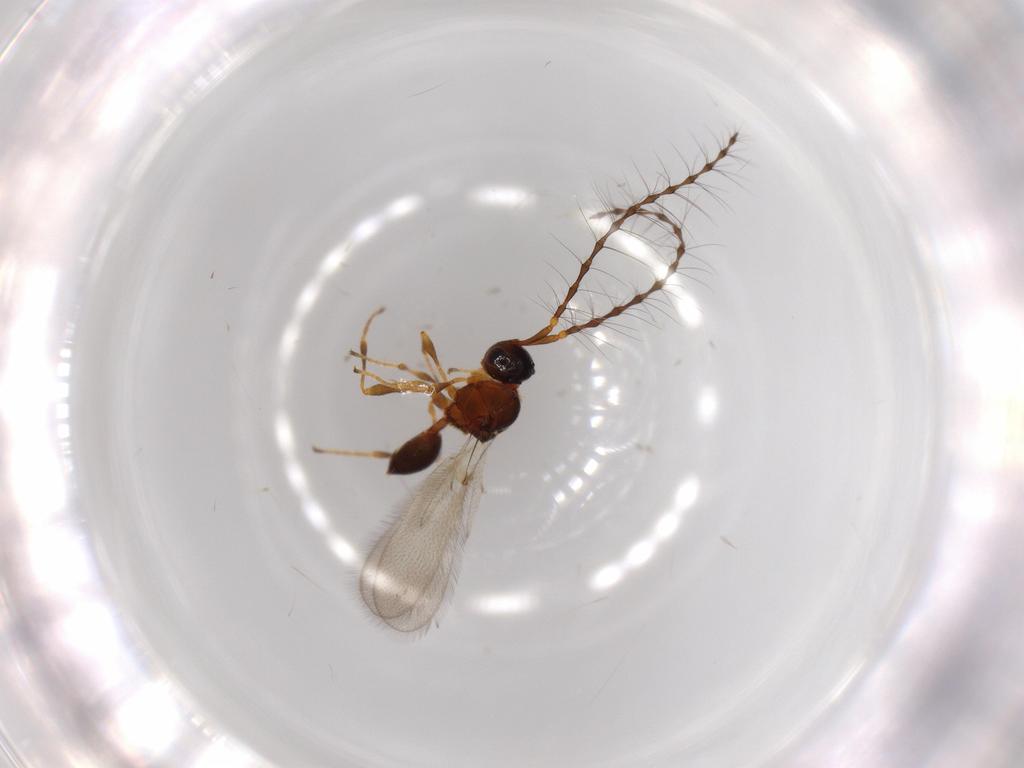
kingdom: Animalia
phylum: Arthropoda
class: Insecta
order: Hymenoptera
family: Diapriidae
